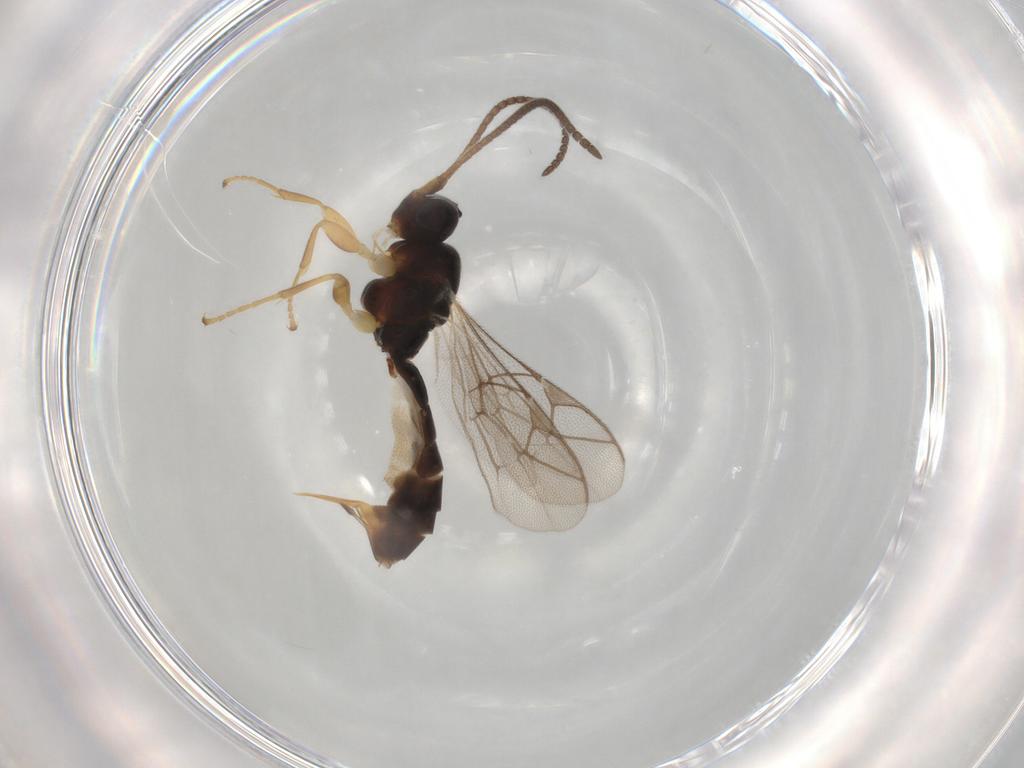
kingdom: Animalia
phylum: Arthropoda
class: Insecta
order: Hymenoptera
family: Ichneumonidae
